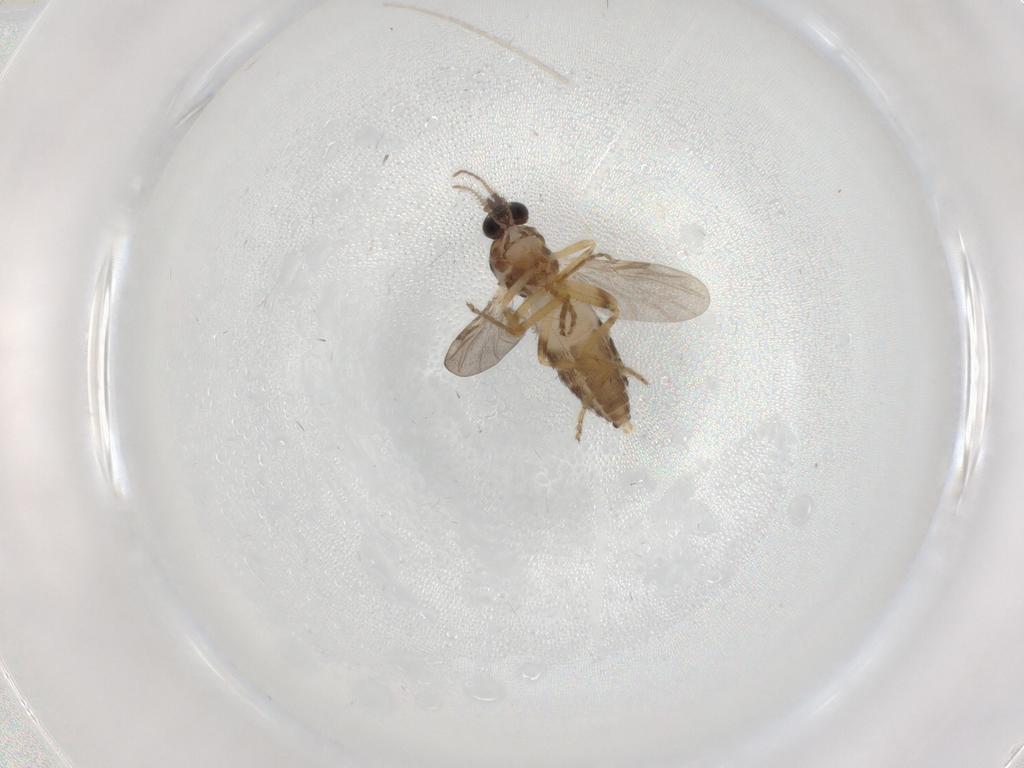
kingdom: Animalia
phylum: Arthropoda
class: Insecta
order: Diptera
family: Ceratopogonidae
